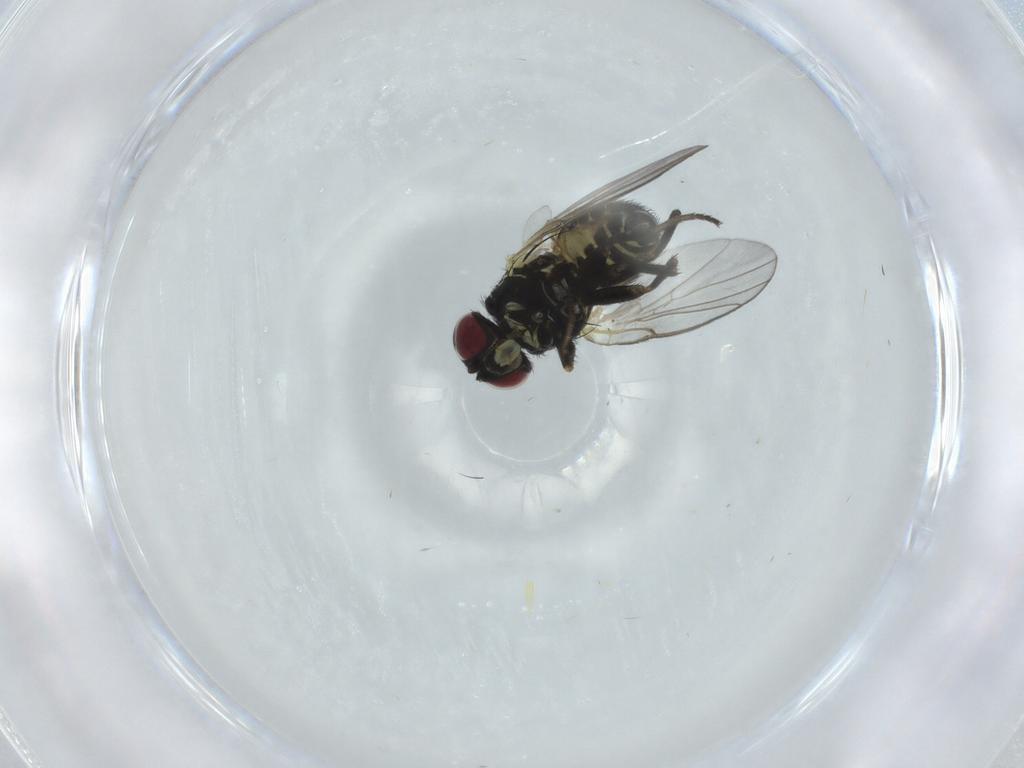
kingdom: Animalia
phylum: Arthropoda
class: Insecta
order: Diptera
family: Agromyzidae
